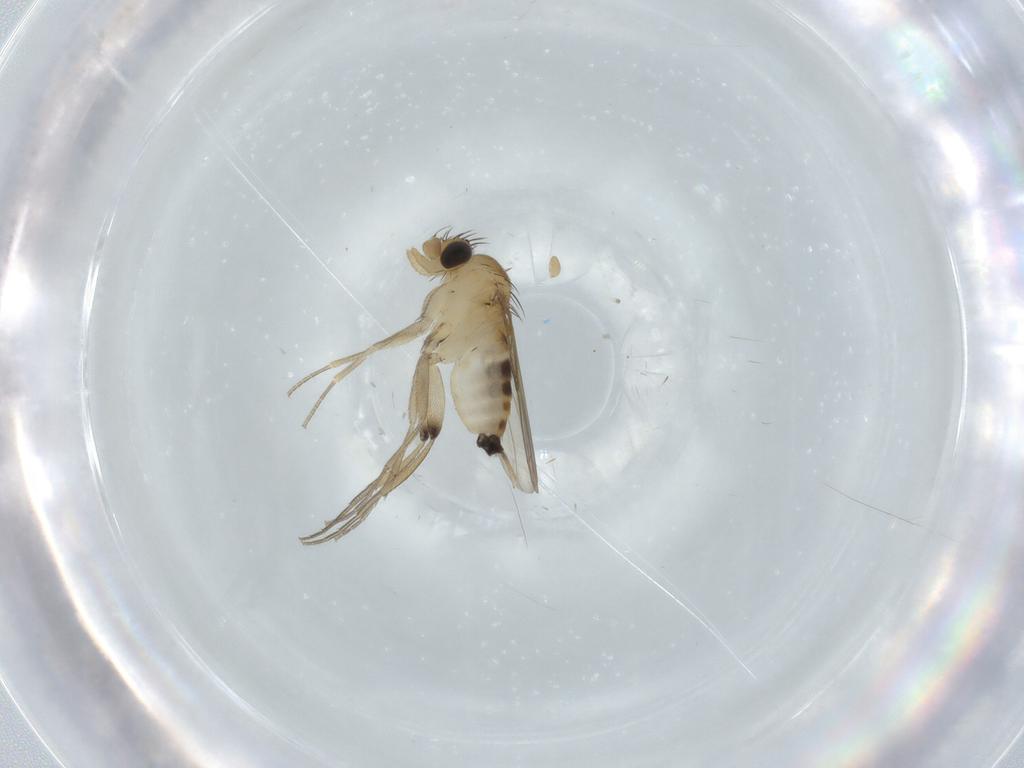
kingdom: Animalia
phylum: Arthropoda
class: Insecta
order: Diptera
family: Phoridae
